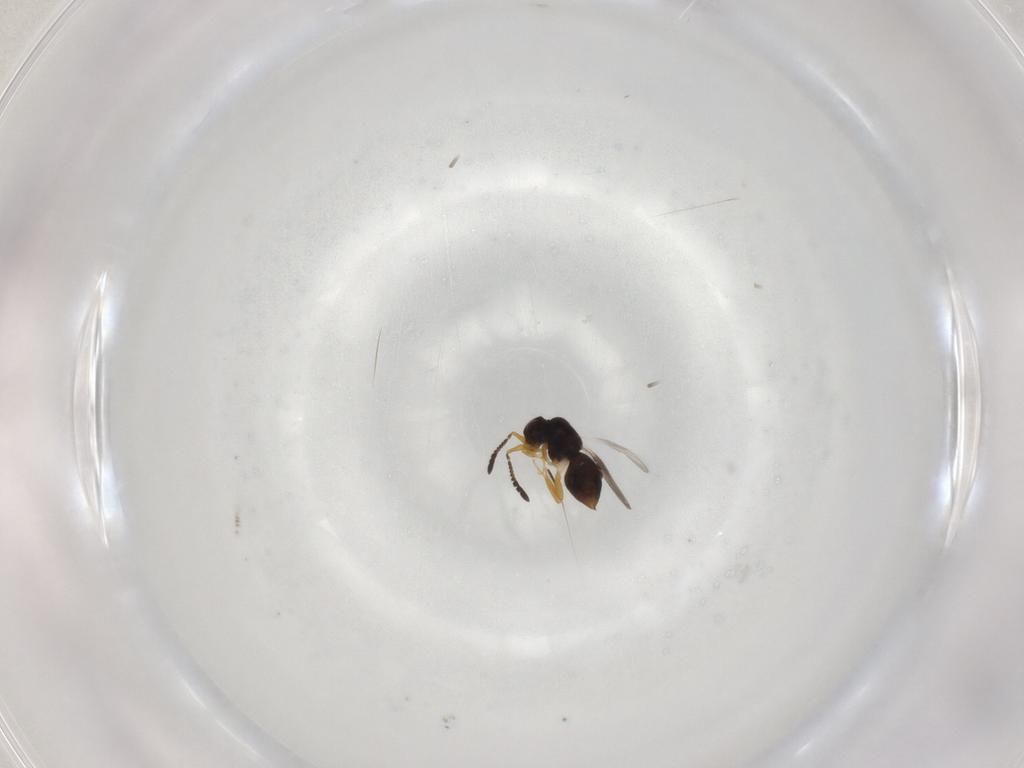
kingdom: Animalia
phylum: Arthropoda
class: Insecta
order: Hymenoptera
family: Ceraphronidae
